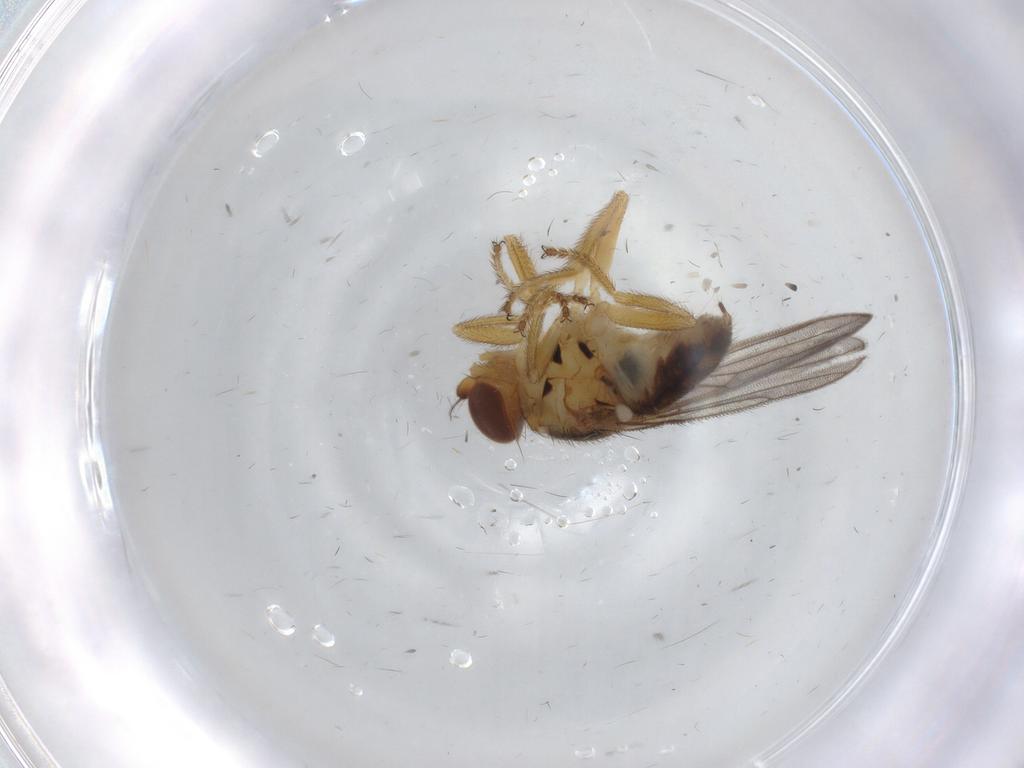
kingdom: Animalia
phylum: Arthropoda
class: Insecta
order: Diptera
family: Chloropidae
